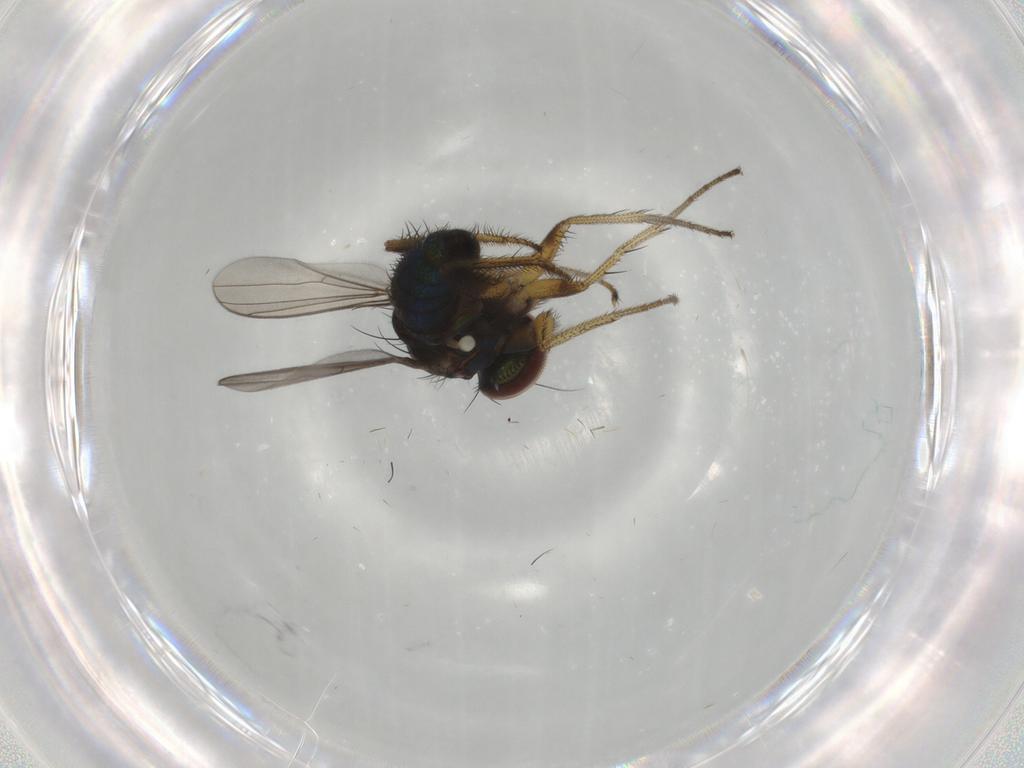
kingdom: Animalia
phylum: Arthropoda
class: Insecta
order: Diptera
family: Dolichopodidae
